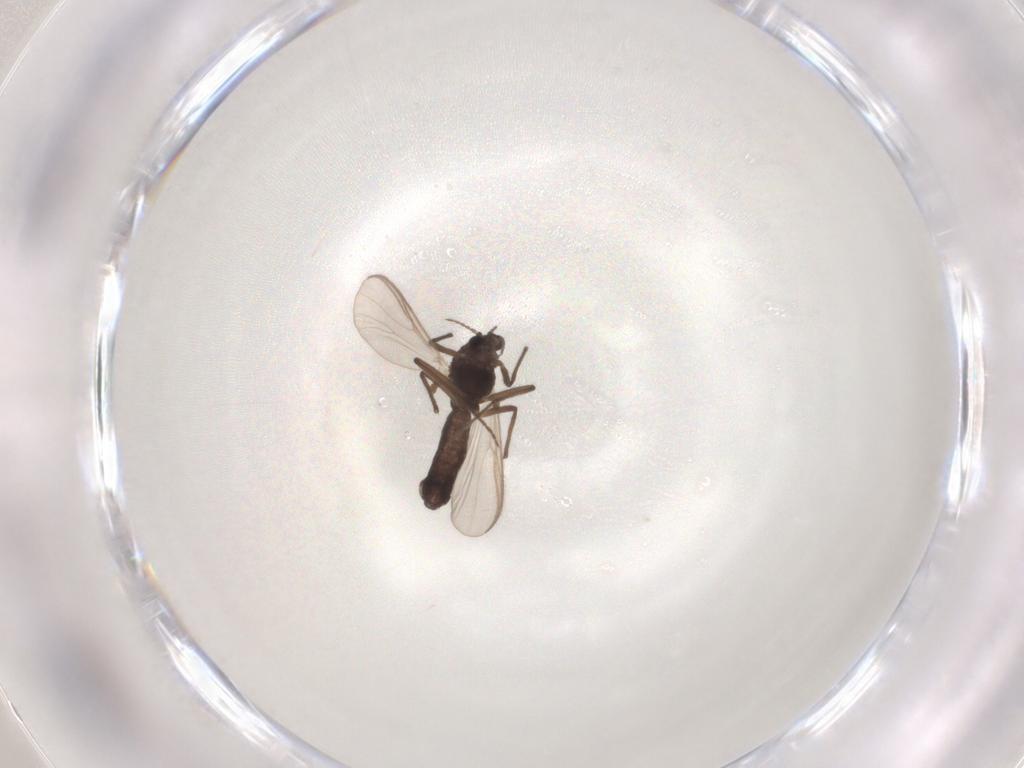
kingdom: Animalia
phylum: Arthropoda
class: Insecta
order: Diptera
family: Chironomidae
